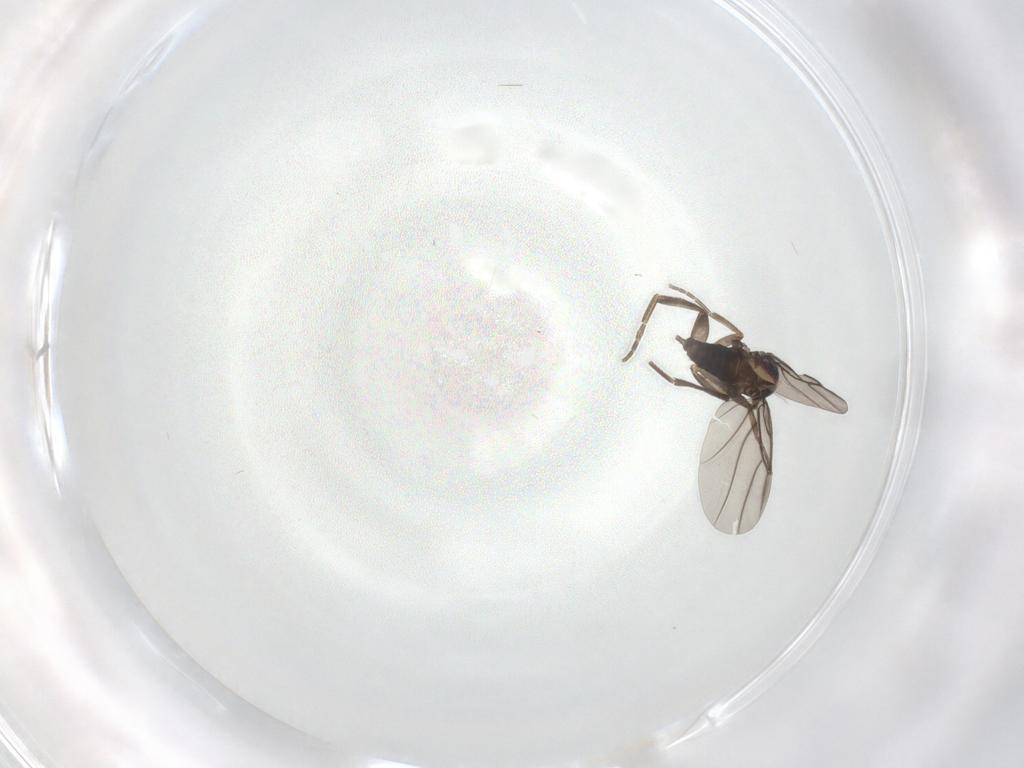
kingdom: Animalia
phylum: Arthropoda
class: Insecta
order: Diptera
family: Phoridae
